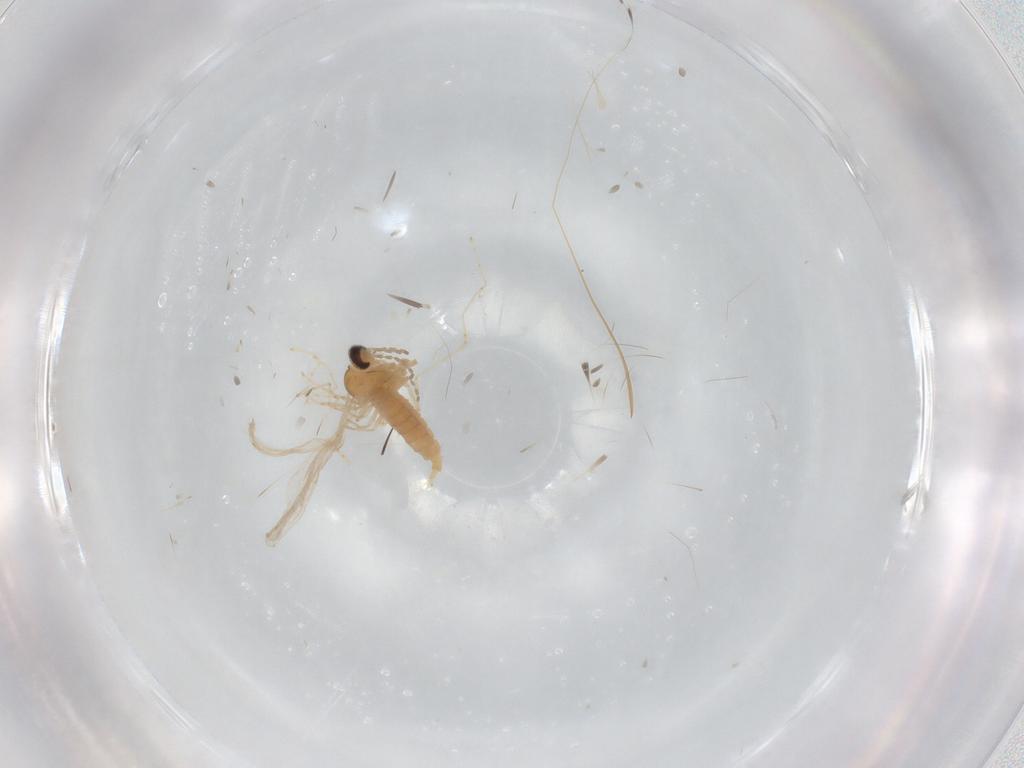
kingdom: Animalia
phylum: Arthropoda
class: Insecta
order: Diptera
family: Cecidomyiidae
